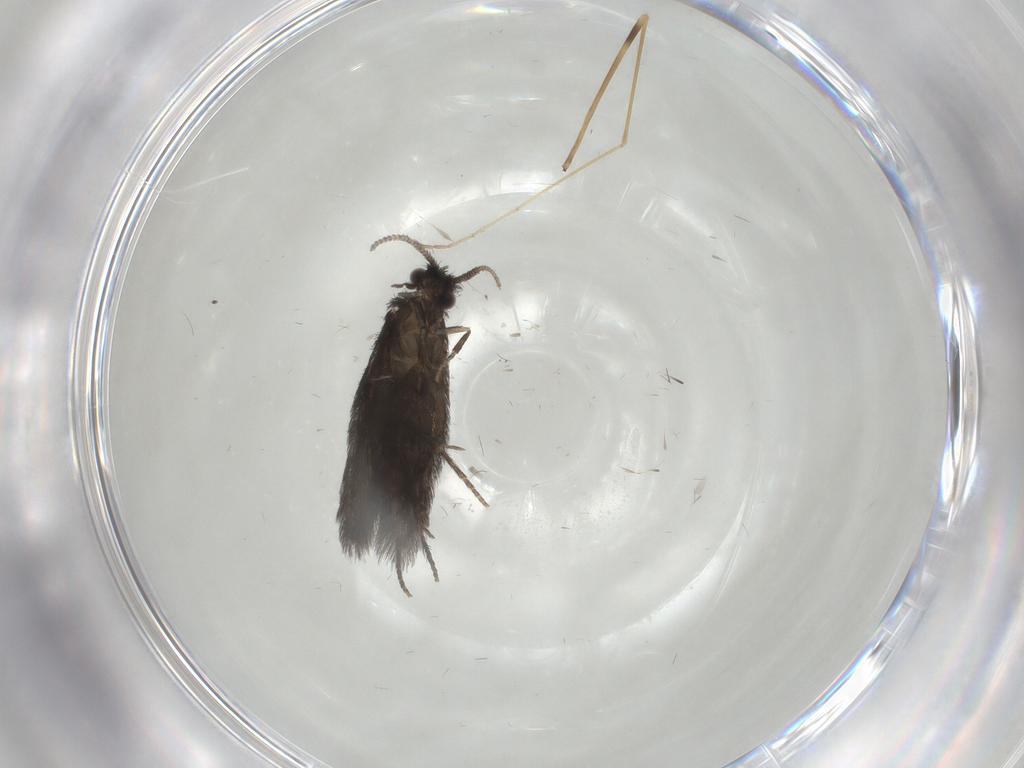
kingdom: Animalia
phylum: Arthropoda
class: Insecta
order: Trichoptera
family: Hydroptilidae
